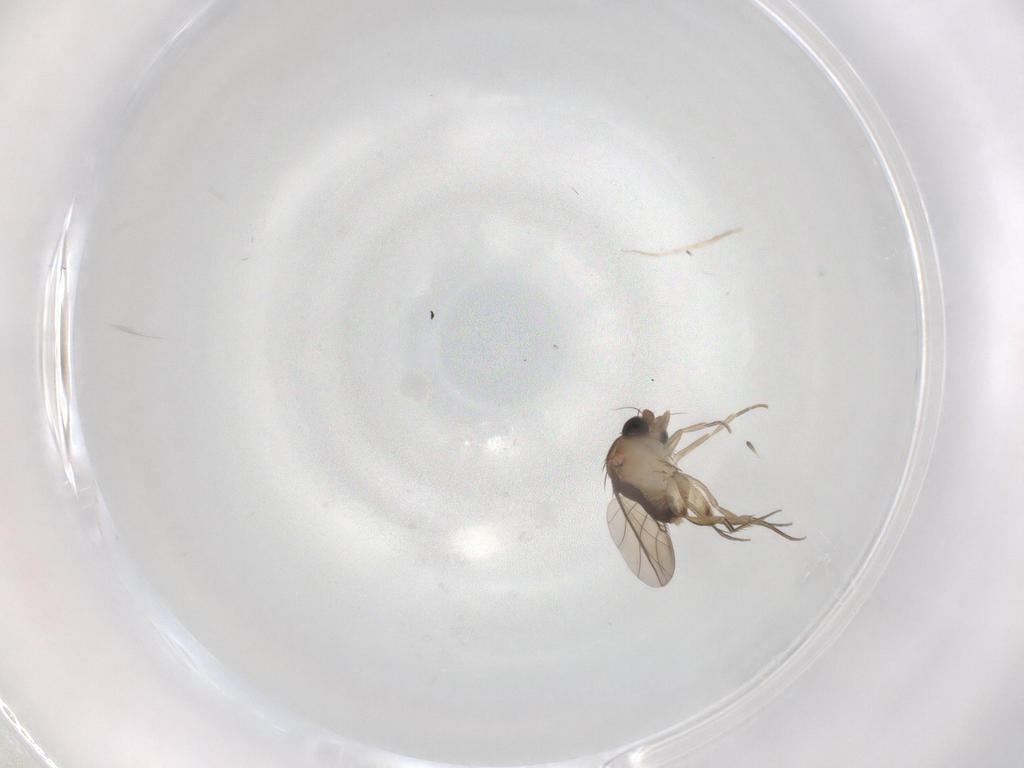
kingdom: Animalia
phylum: Arthropoda
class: Insecta
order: Diptera
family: Phoridae
